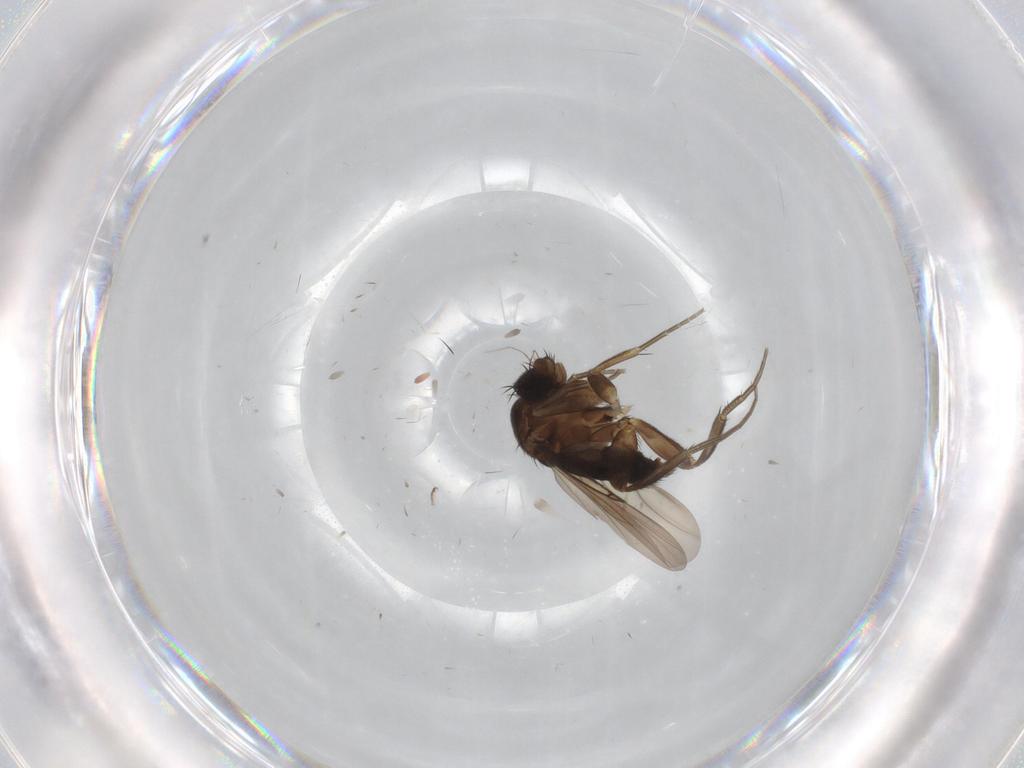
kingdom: Animalia
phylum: Arthropoda
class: Insecta
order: Diptera
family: Phoridae
